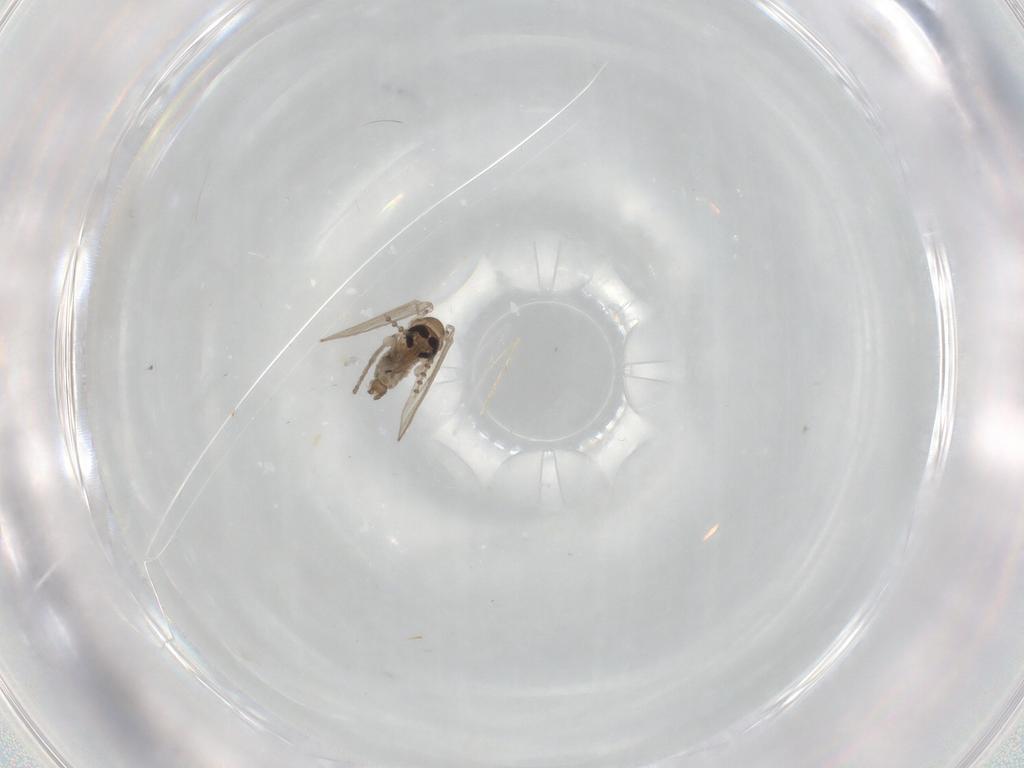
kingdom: Animalia
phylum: Arthropoda
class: Insecta
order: Diptera
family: Psychodidae
